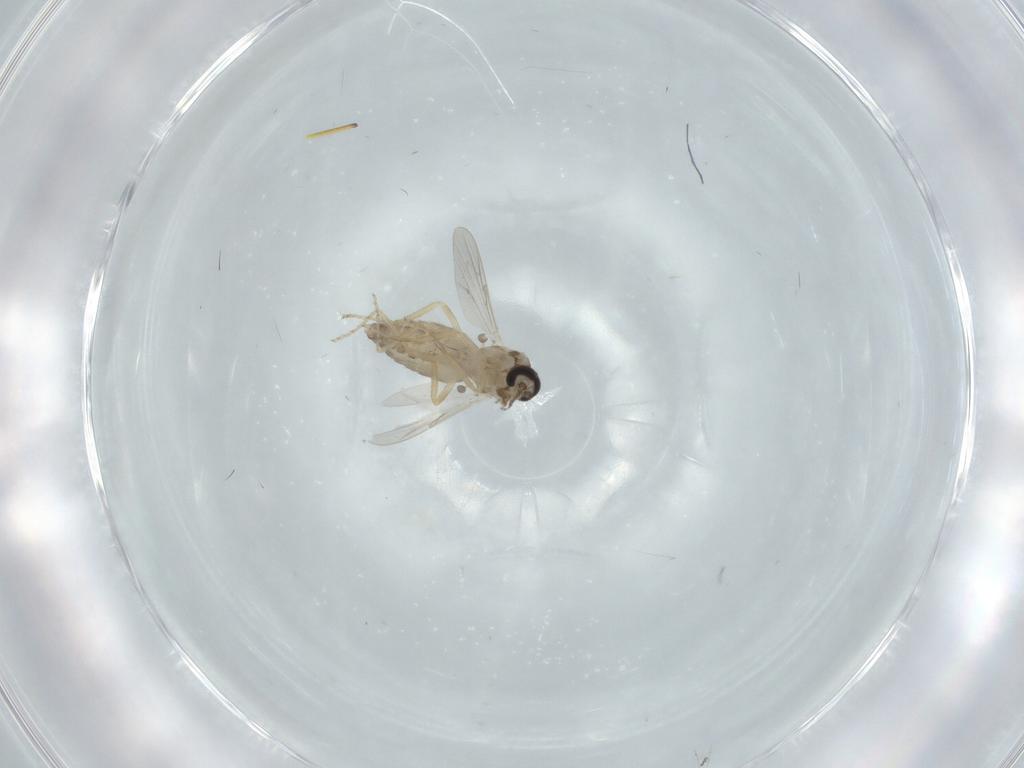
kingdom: Animalia
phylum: Arthropoda
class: Insecta
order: Diptera
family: Ceratopogonidae
